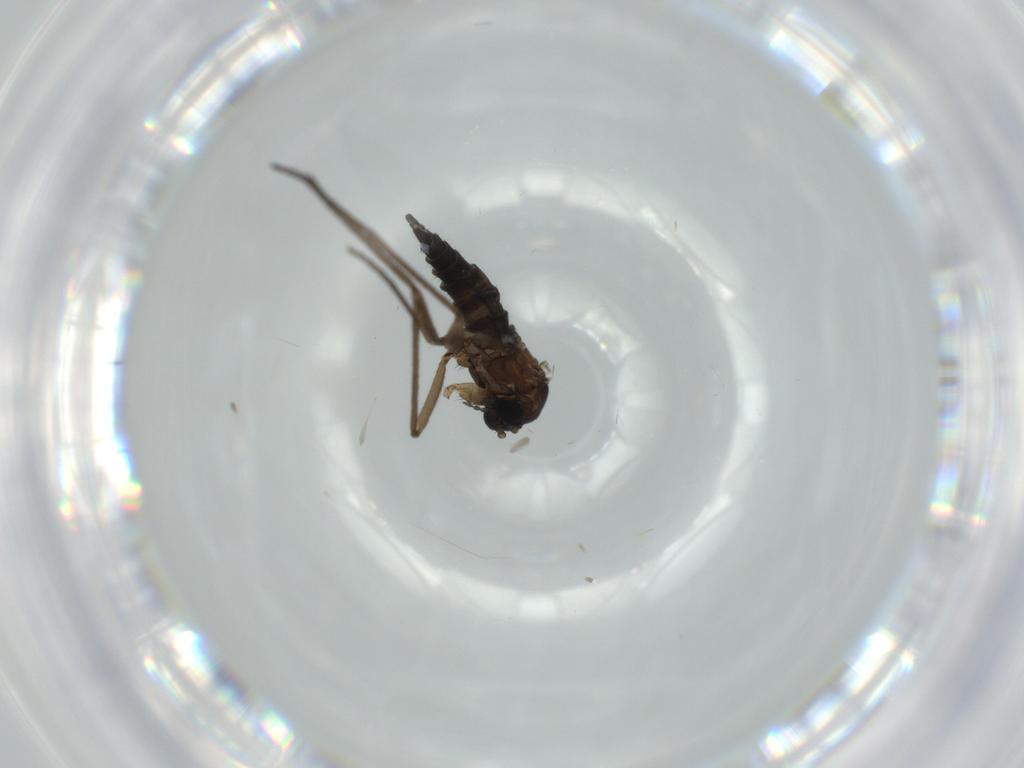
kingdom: Animalia
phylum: Arthropoda
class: Insecta
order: Diptera
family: Sciaridae
